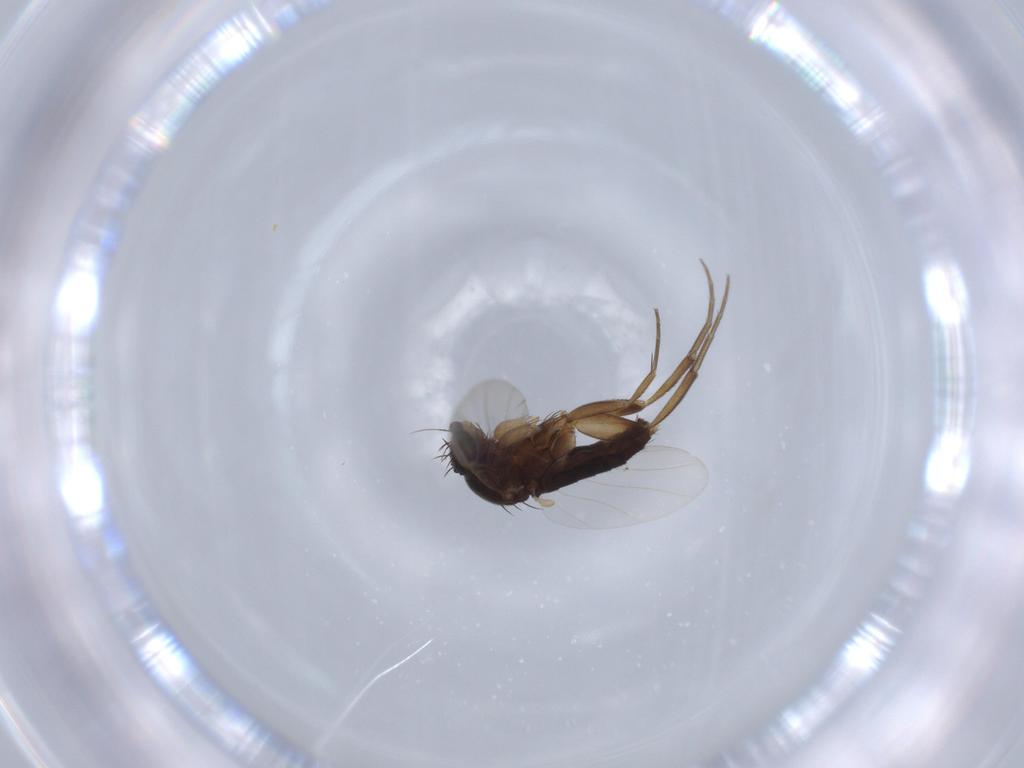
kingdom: Animalia
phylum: Arthropoda
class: Insecta
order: Diptera
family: Phoridae
